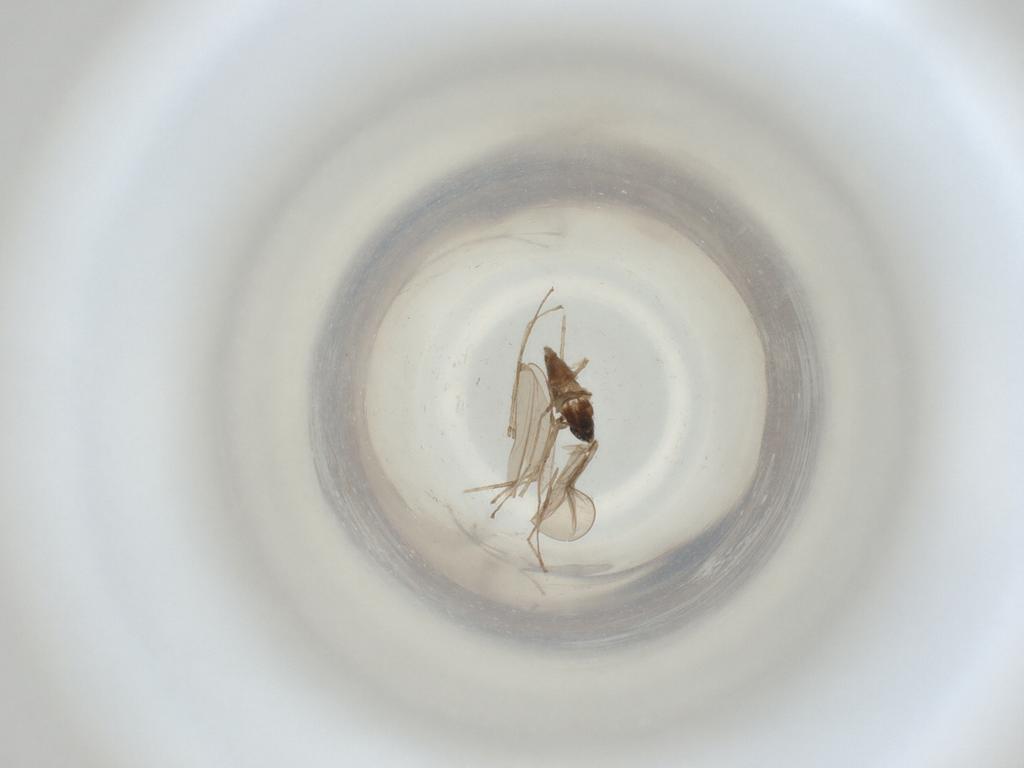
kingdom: Animalia
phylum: Arthropoda
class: Insecta
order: Diptera
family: Cecidomyiidae
